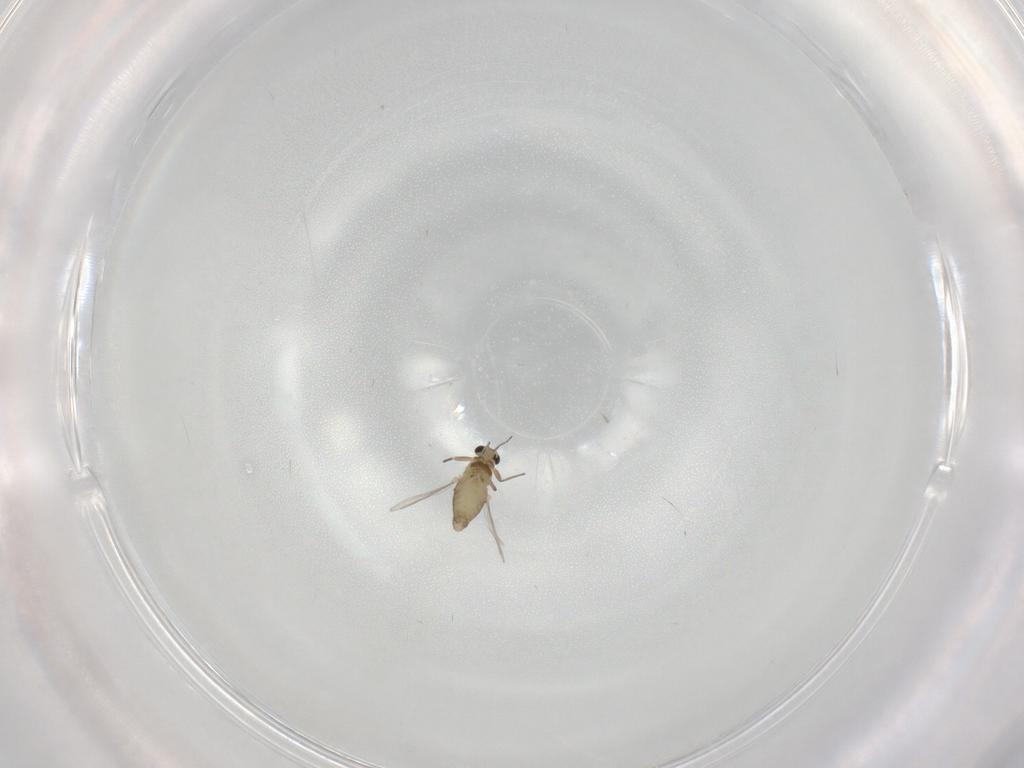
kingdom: Animalia
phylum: Arthropoda
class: Insecta
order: Diptera
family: Chironomidae
